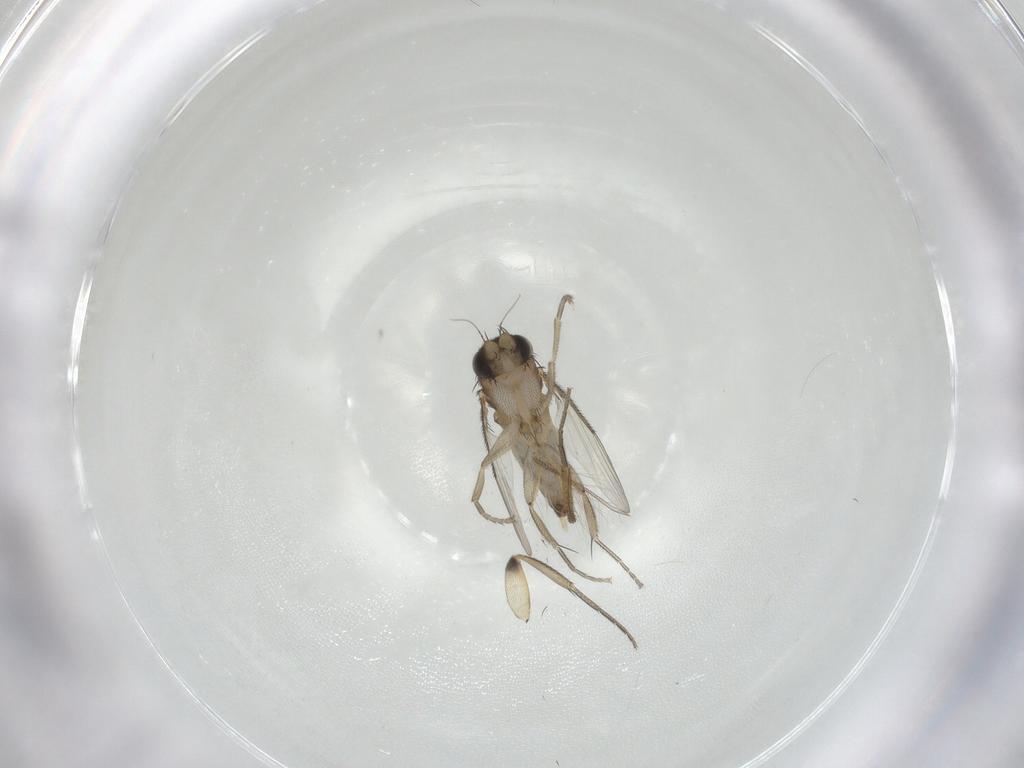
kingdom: Animalia
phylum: Arthropoda
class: Insecta
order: Diptera
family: Phoridae
